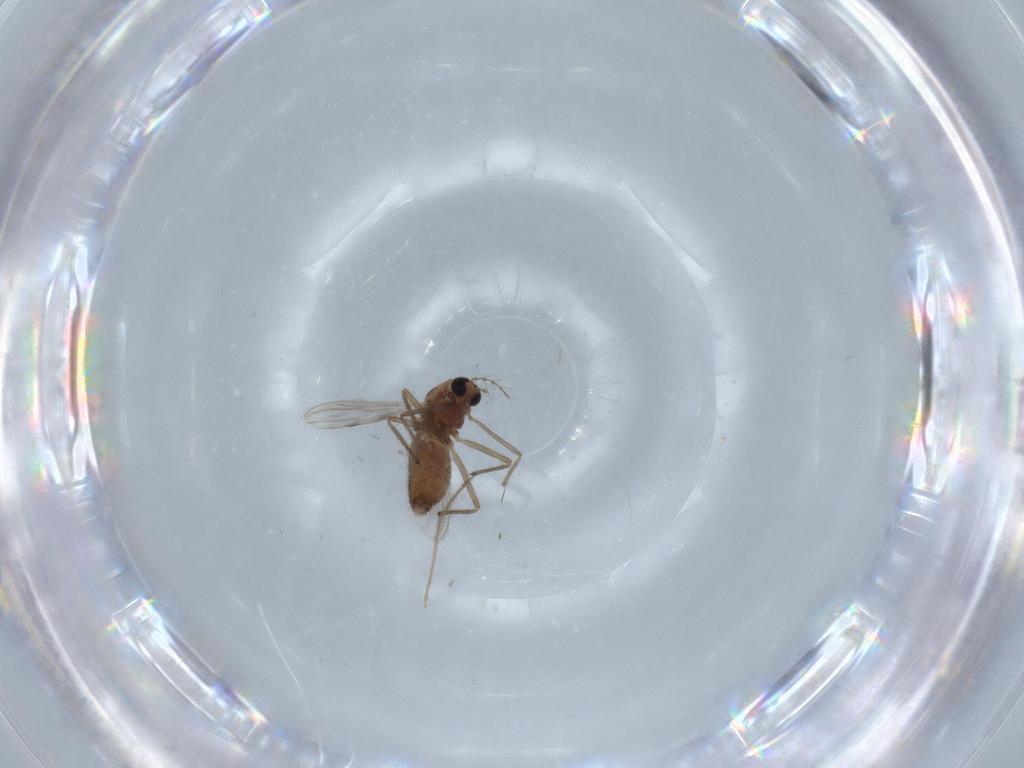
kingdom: Animalia
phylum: Arthropoda
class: Insecta
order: Diptera
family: Chironomidae
